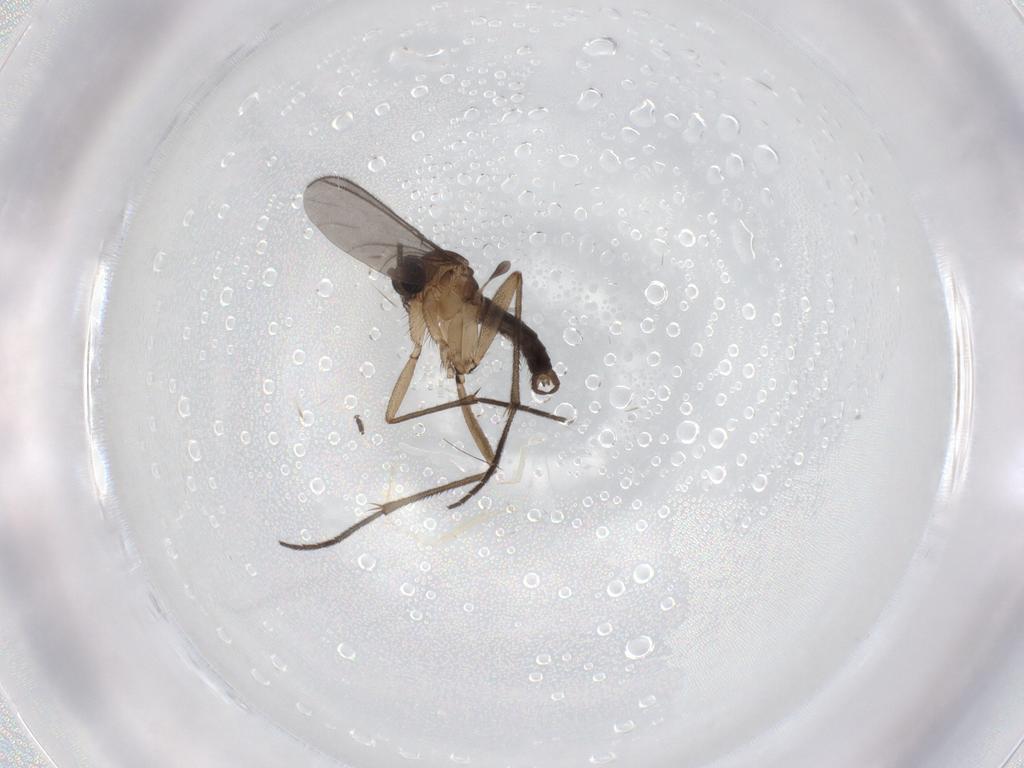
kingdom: Animalia
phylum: Arthropoda
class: Insecta
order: Diptera
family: Sciaridae
